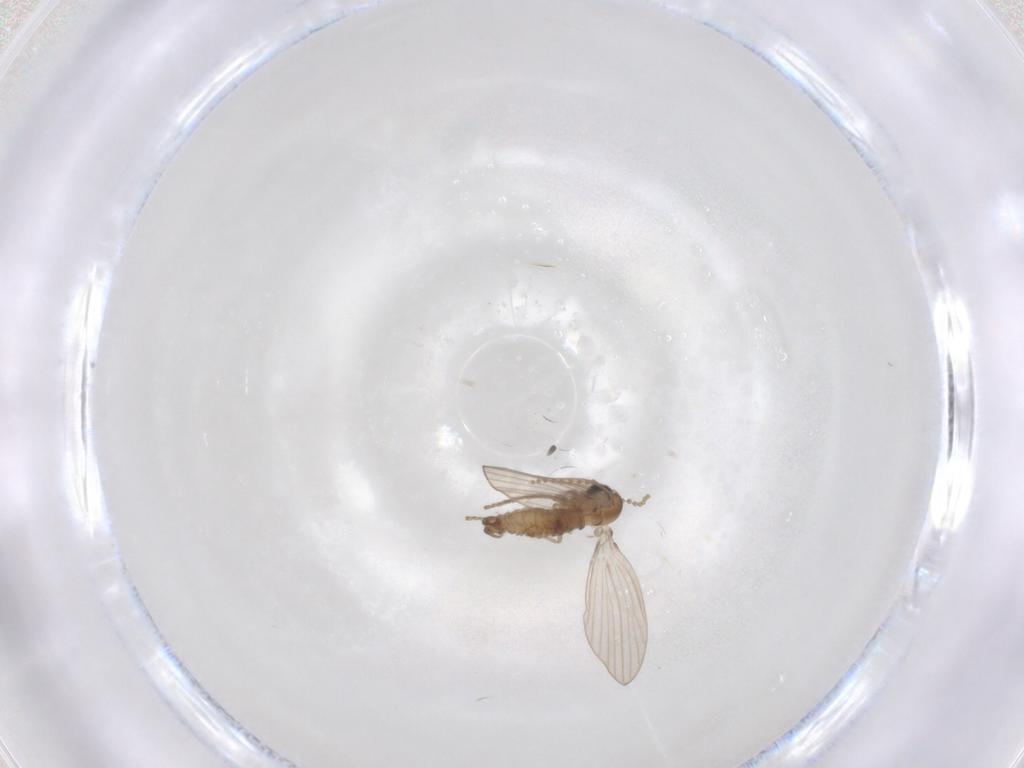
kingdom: Animalia
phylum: Arthropoda
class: Insecta
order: Diptera
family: Psychodidae
